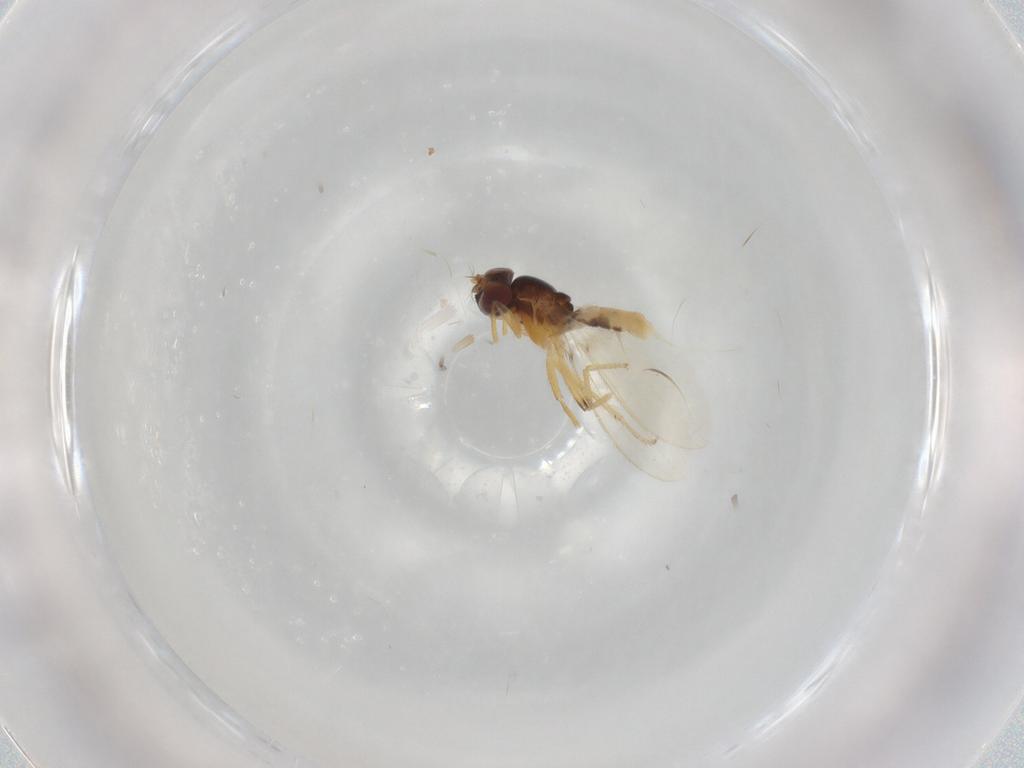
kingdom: Animalia
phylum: Arthropoda
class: Insecta
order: Diptera
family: Periscelididae
